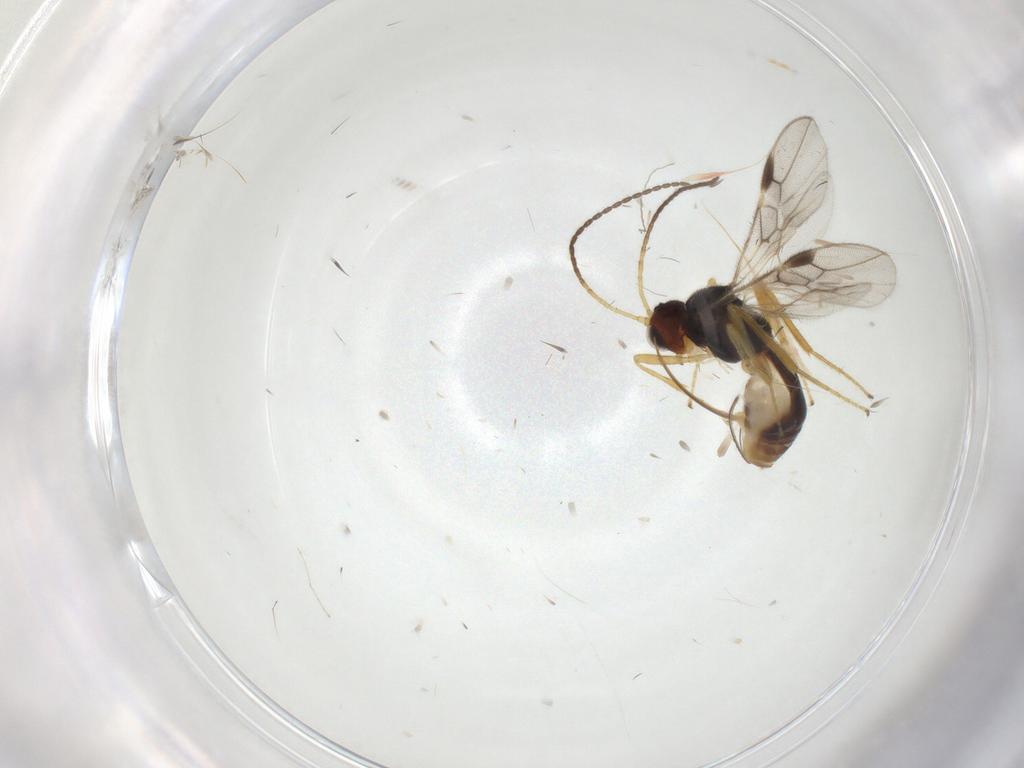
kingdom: Animalia
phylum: Arthropoda
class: Insecta
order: Hymenoptera
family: Braconidae
